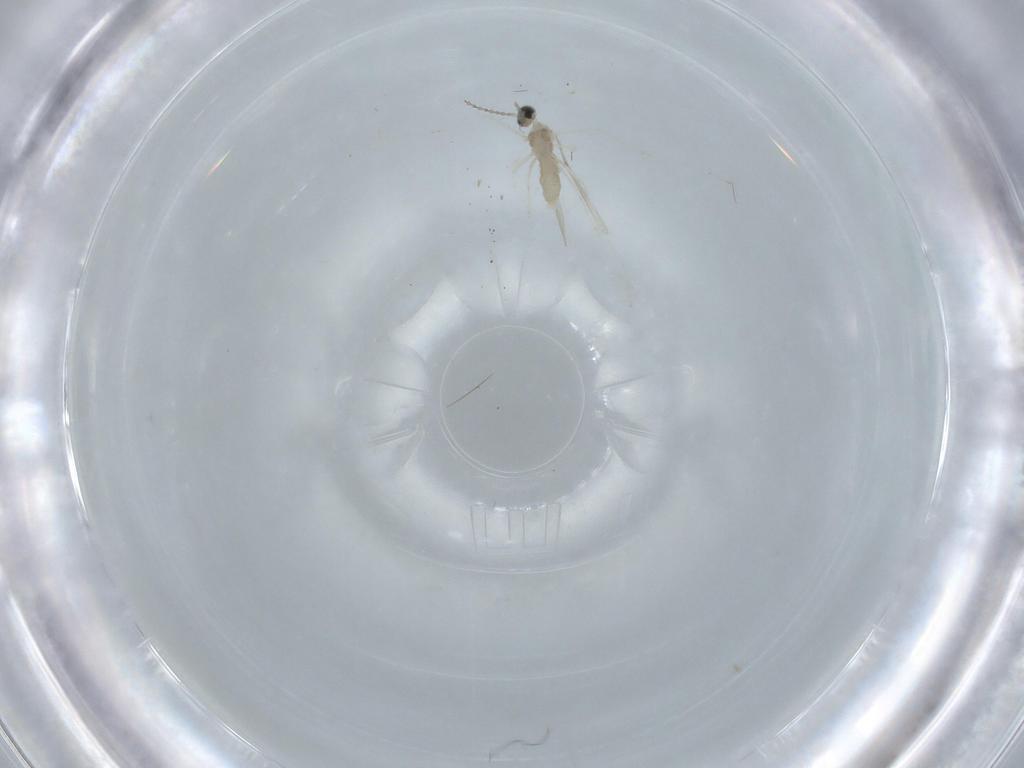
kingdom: Animalia
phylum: Arthropoda
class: Insecta
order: Diptera
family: Cecidomyiidae
